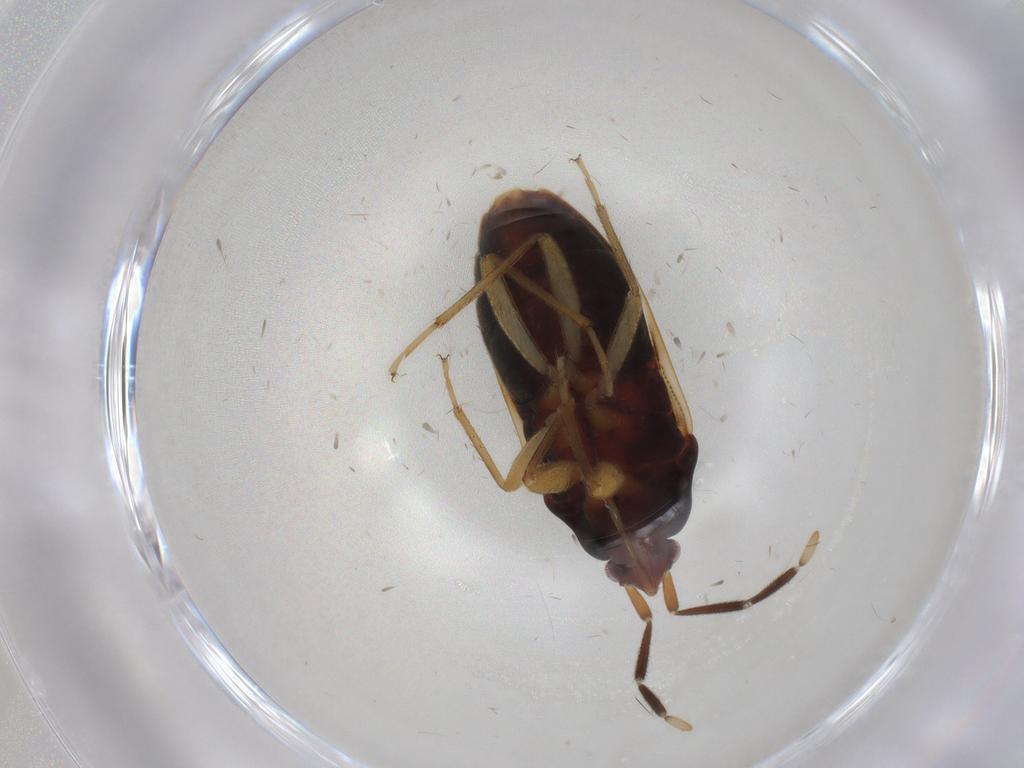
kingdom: Animalia
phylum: Arthropoda
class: Insecta
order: Hemiptera
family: Rhyparochromidae
